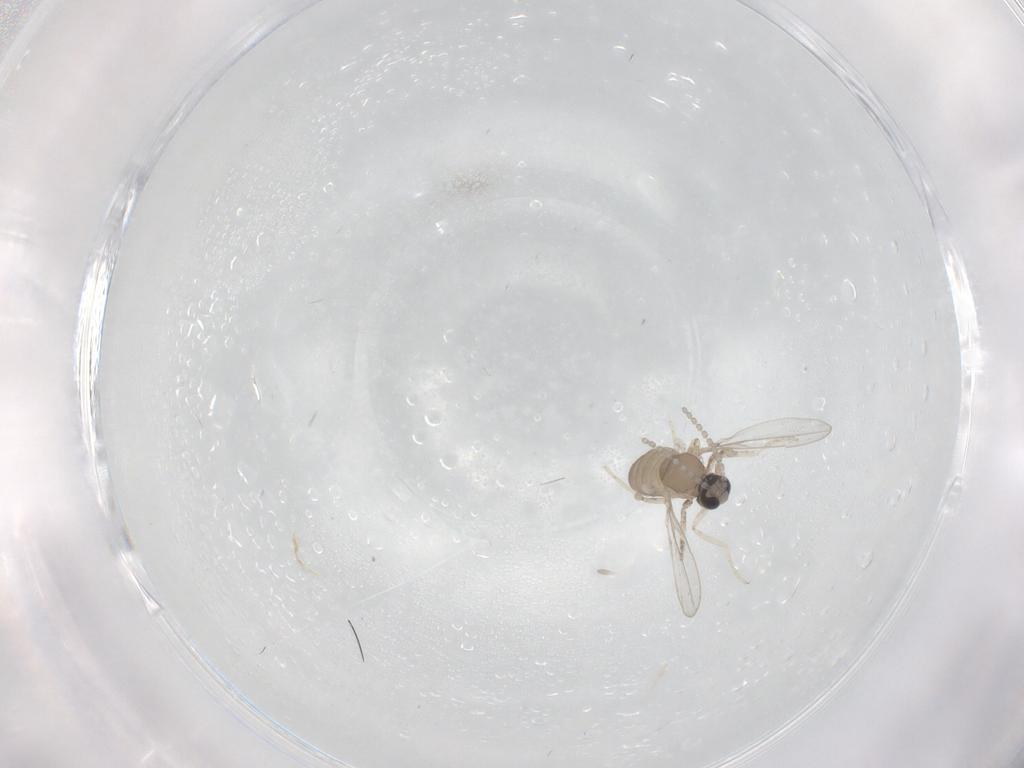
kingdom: Animalia
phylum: Arthropoda
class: Insecta
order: Diptera
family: Cecidomyiidae
